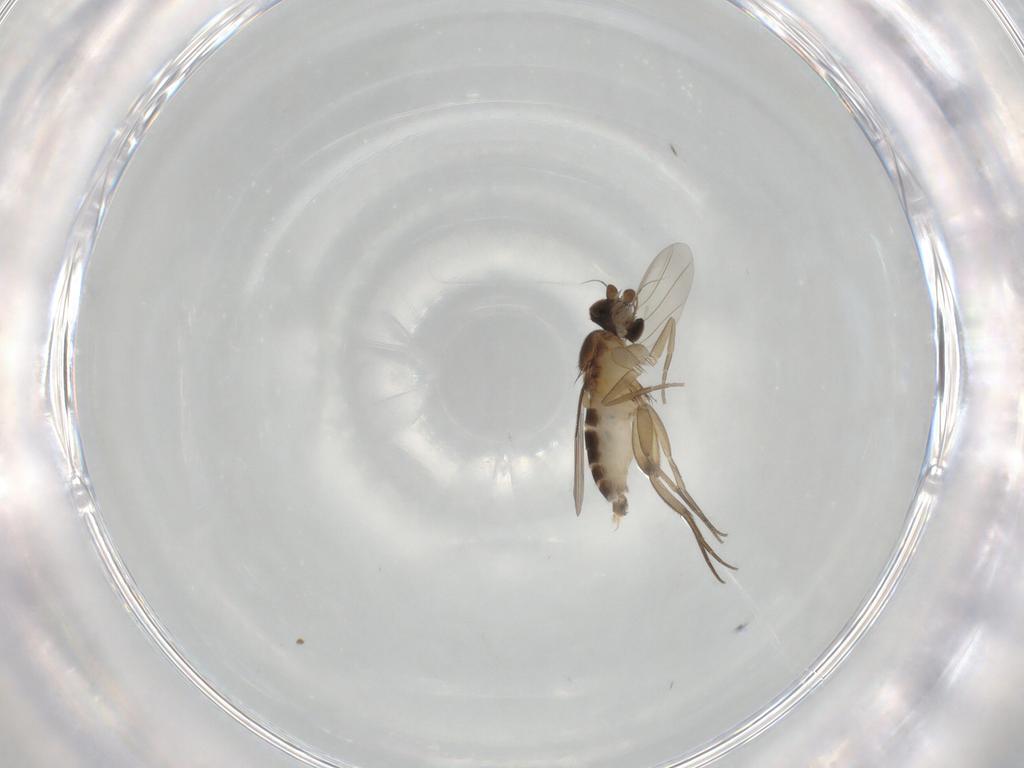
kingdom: Animalia
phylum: Arthropoda
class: Insecta
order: Diptera
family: Phoridae
